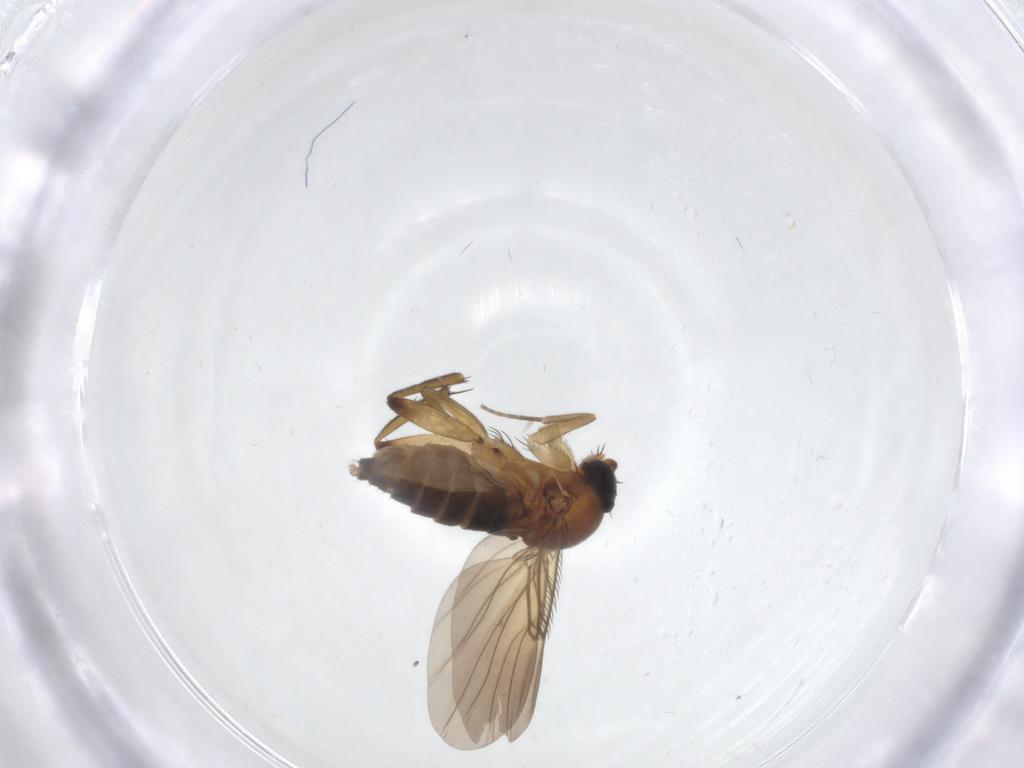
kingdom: Animalia
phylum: Arthropoda
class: Insecta
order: Diptera
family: Phoridae
